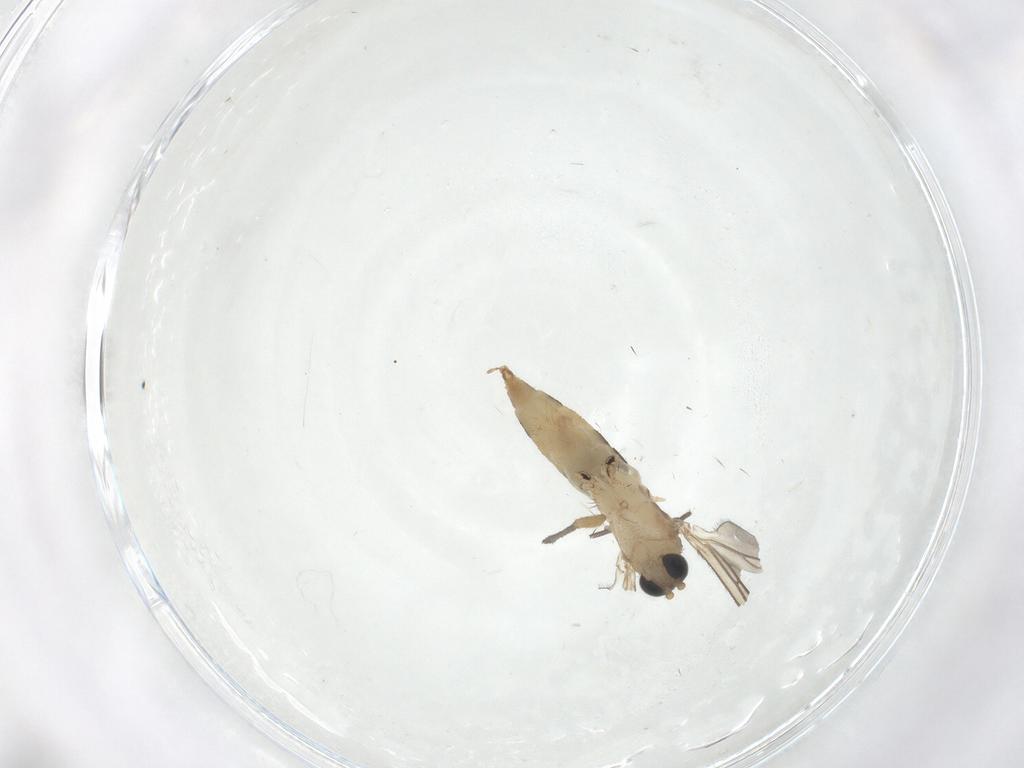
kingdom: Animalia
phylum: Arthropoda
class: Insecta
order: Diptera
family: Sciaridae
